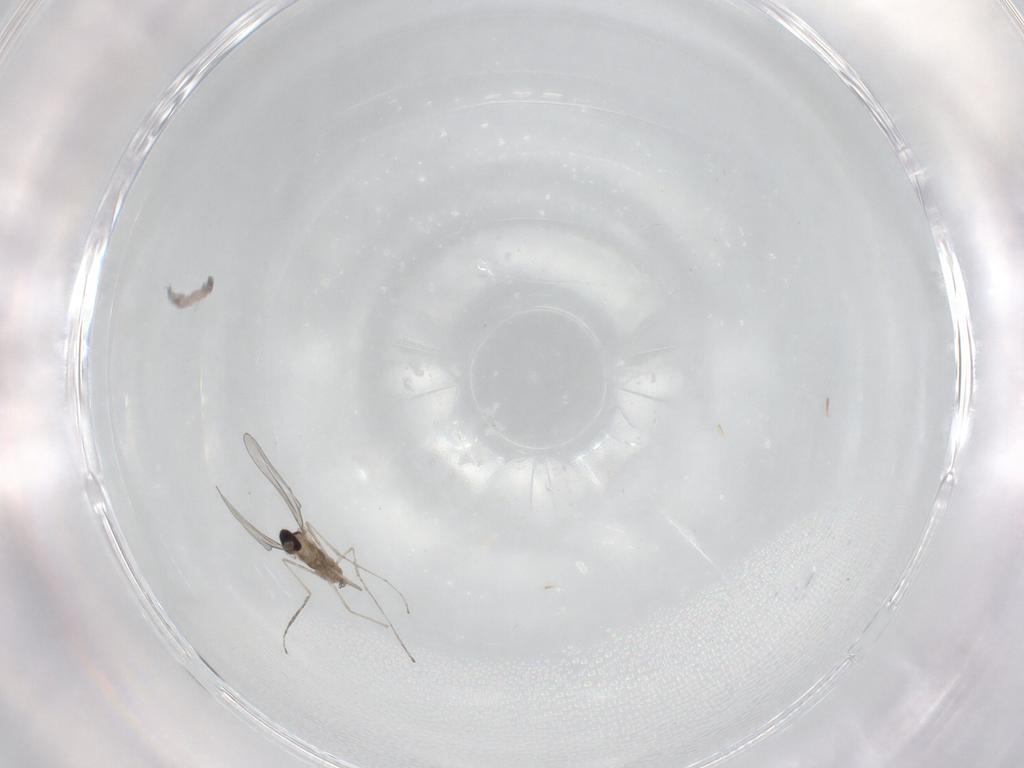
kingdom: Animalia
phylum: Arthropoda
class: Insecta
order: Diptera
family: Cecidomyiidae
